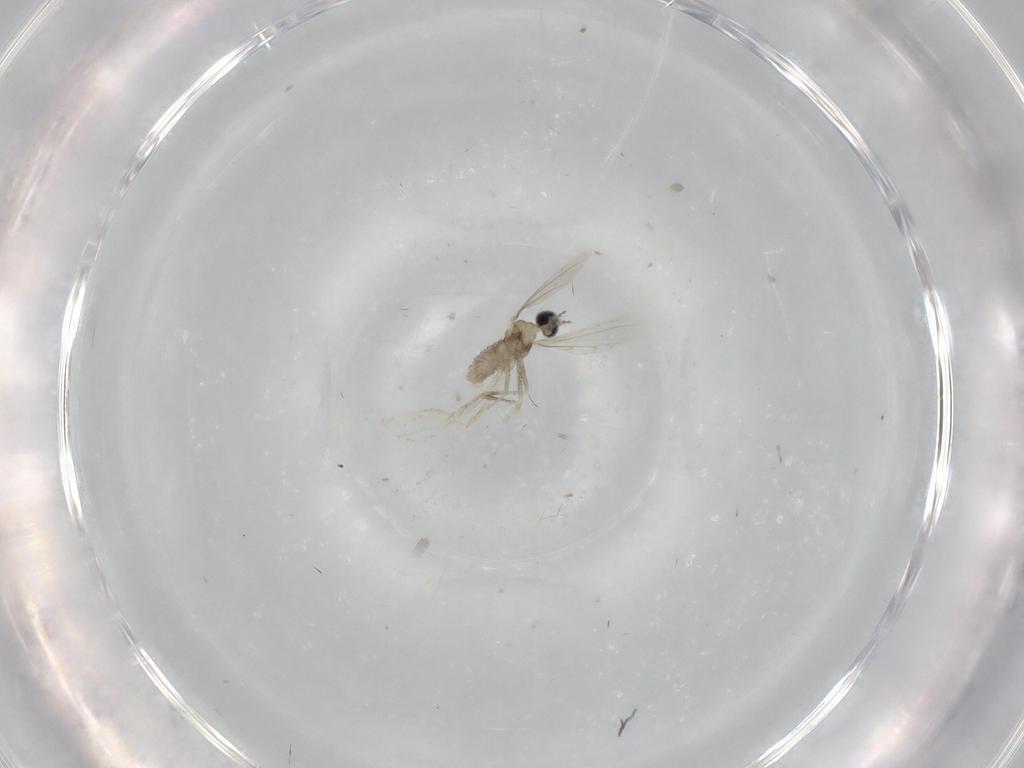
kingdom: Animalia
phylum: Arthropoda
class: Insecta
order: Diptera
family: Chironomidae
